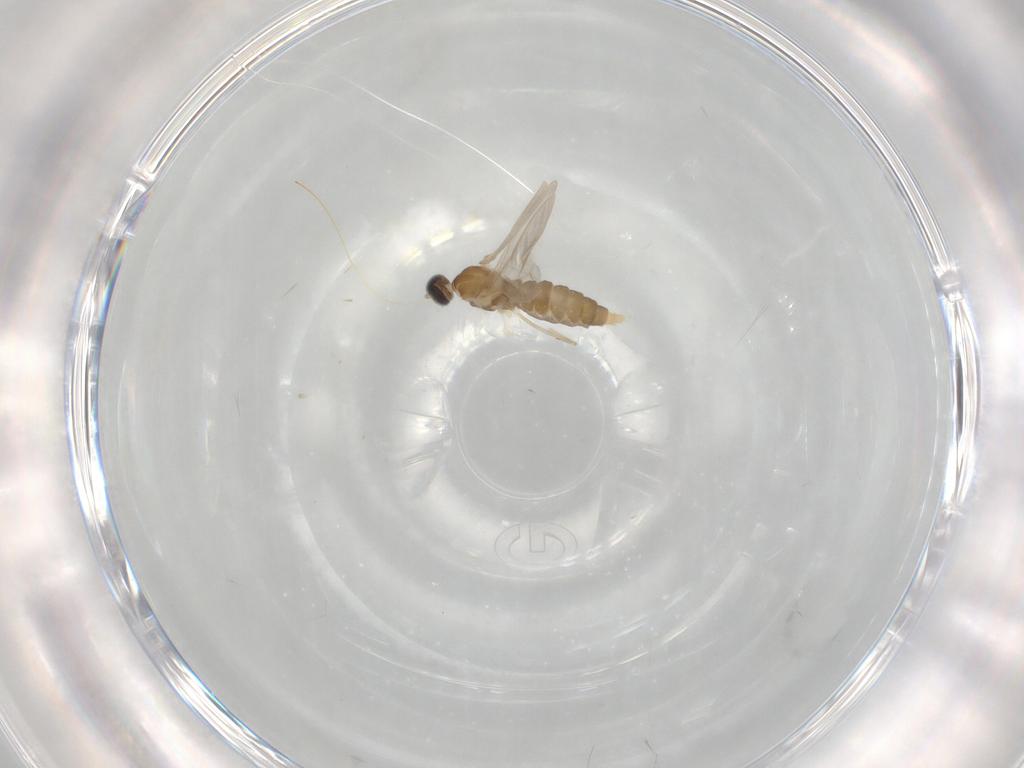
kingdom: Animalia
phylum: Arthropoda
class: Insecta
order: Diptera
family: Cecidomyiidae
